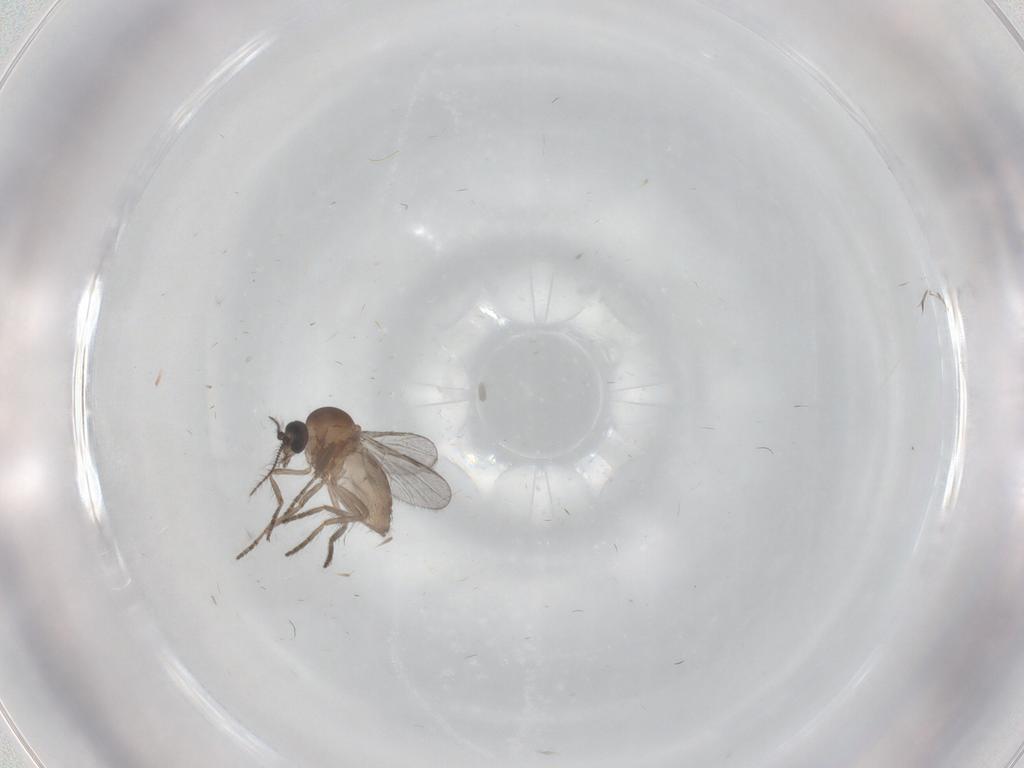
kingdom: Animalia
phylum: Arthropoda
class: Insecta
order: Diptera
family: Ceratopogonidae
